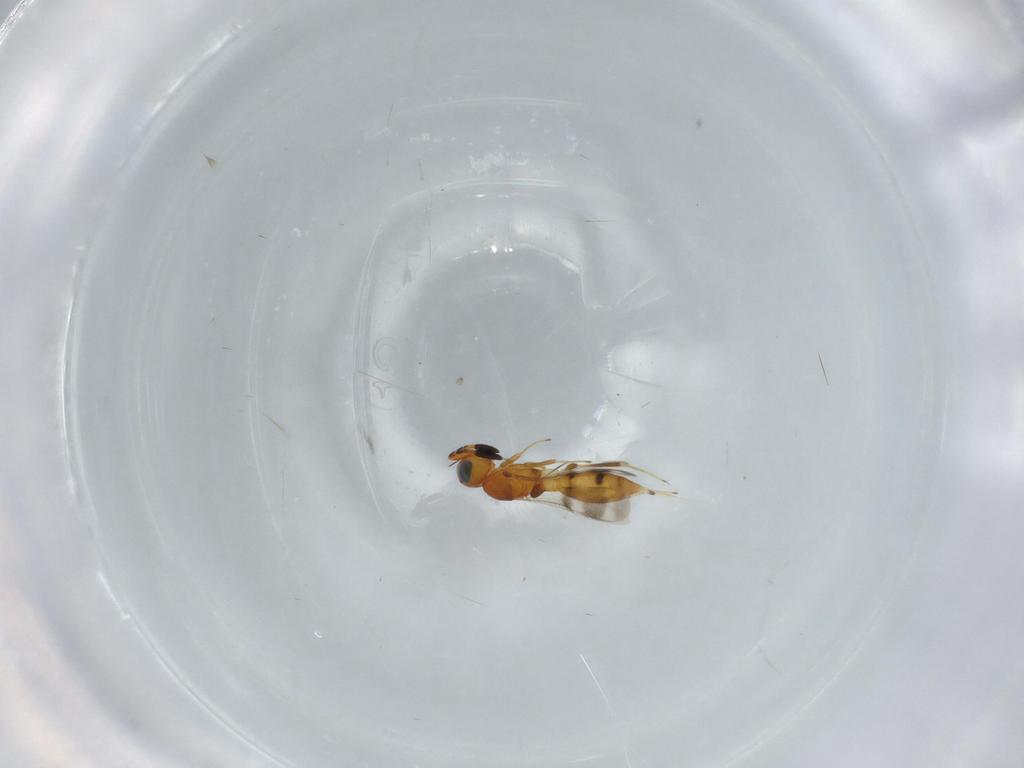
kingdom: Animalia
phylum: Arthropoda
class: Insecta
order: Hymenoptera
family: Scelionidae
